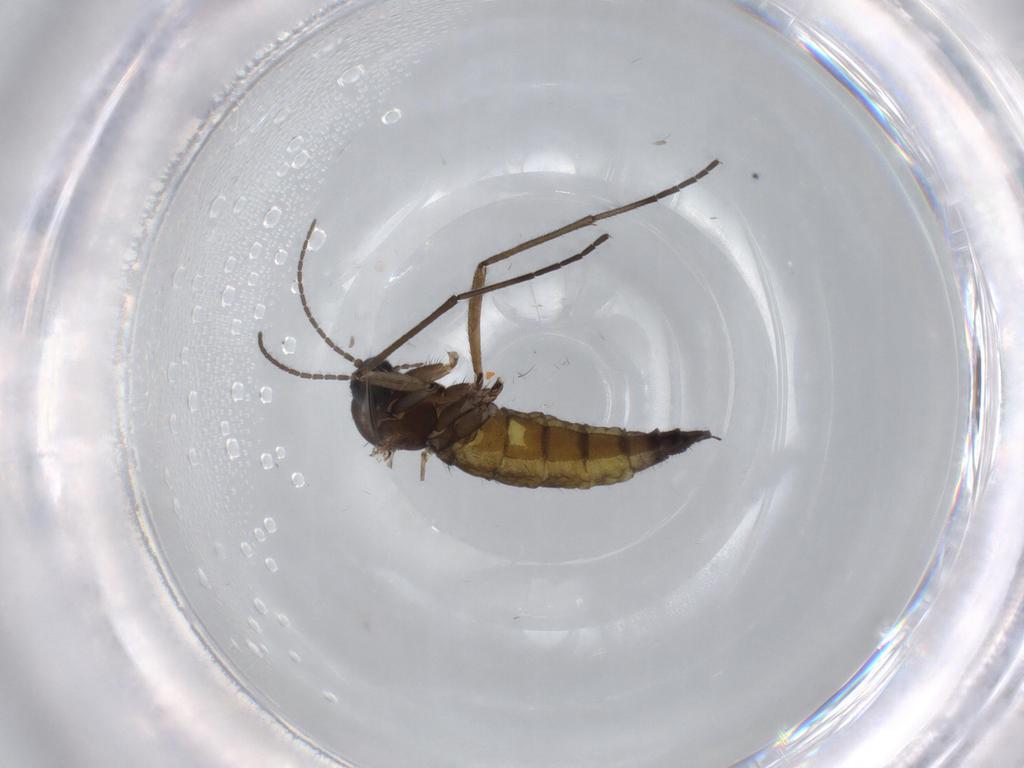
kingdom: Animalia
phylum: Arthropoda
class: Insecta
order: Diptera
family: Sciaridae
